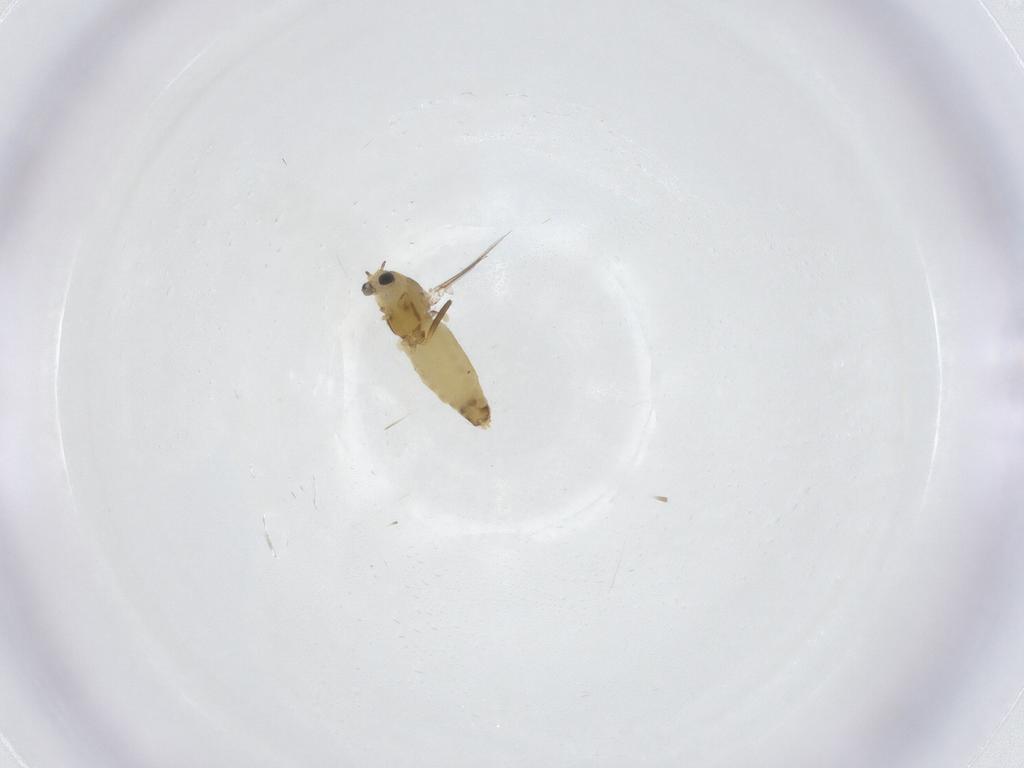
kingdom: Animalia
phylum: Arthropoda
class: Insecta
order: Diptera
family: Chironomidae
